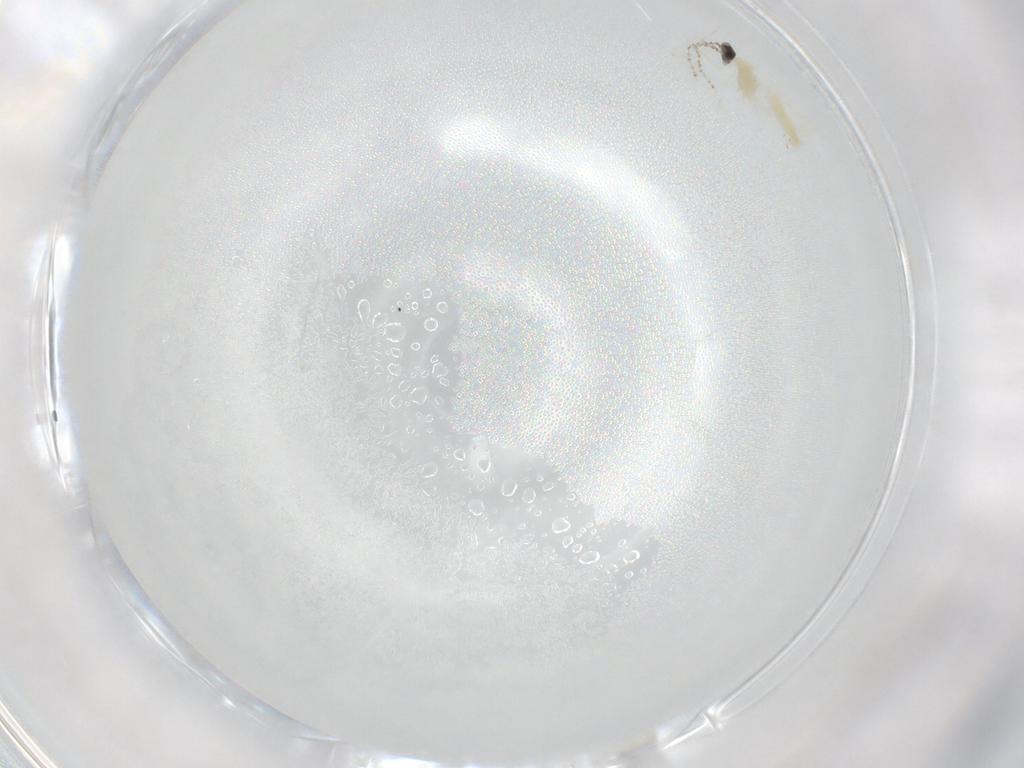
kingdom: Animalia
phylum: Arthropoda
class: Insecta
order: Diptera
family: Cecidomyiidae
